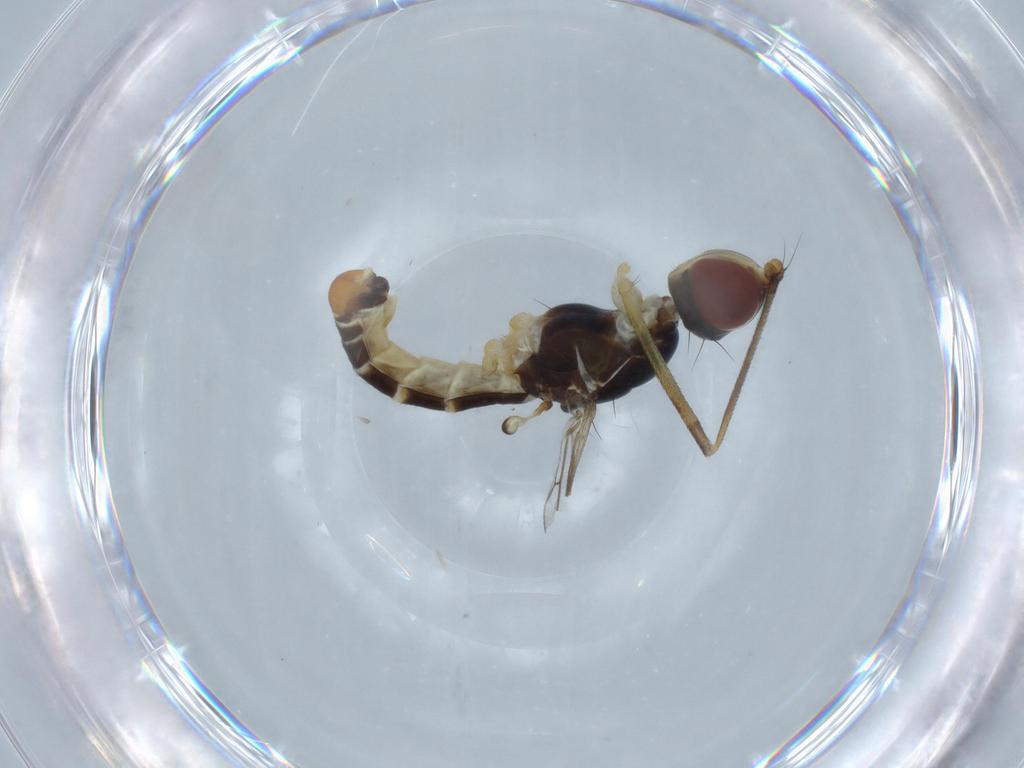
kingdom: Animalia
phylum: Arthropoda
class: Insecta
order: Diptera
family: Micropezidae
